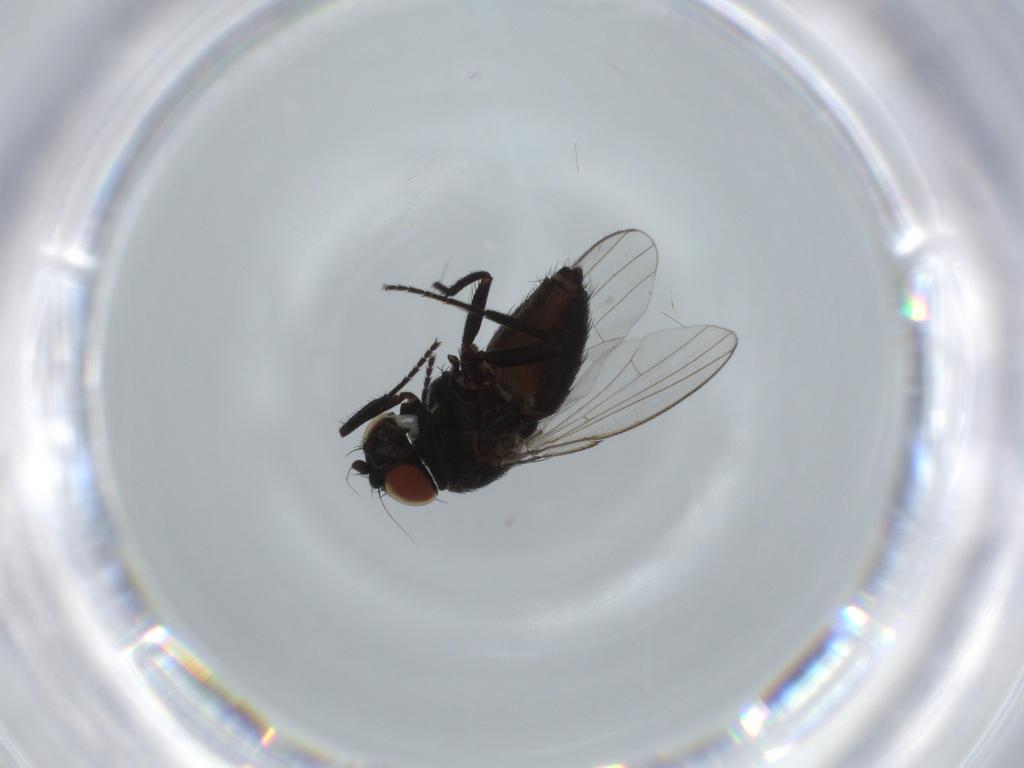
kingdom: Animalia
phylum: Arthropoda
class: Insecta
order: Diptera
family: Milichiidae
